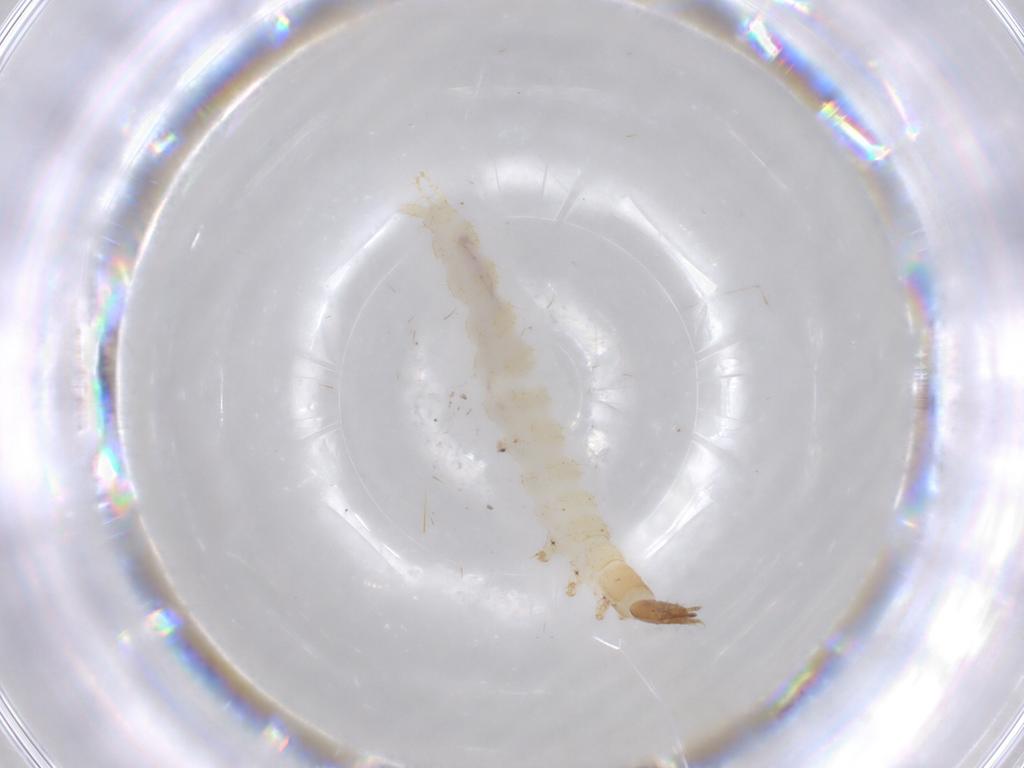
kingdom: Animalia
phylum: Arthropoda
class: Insecta
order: Coleoptera
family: Carabidae
